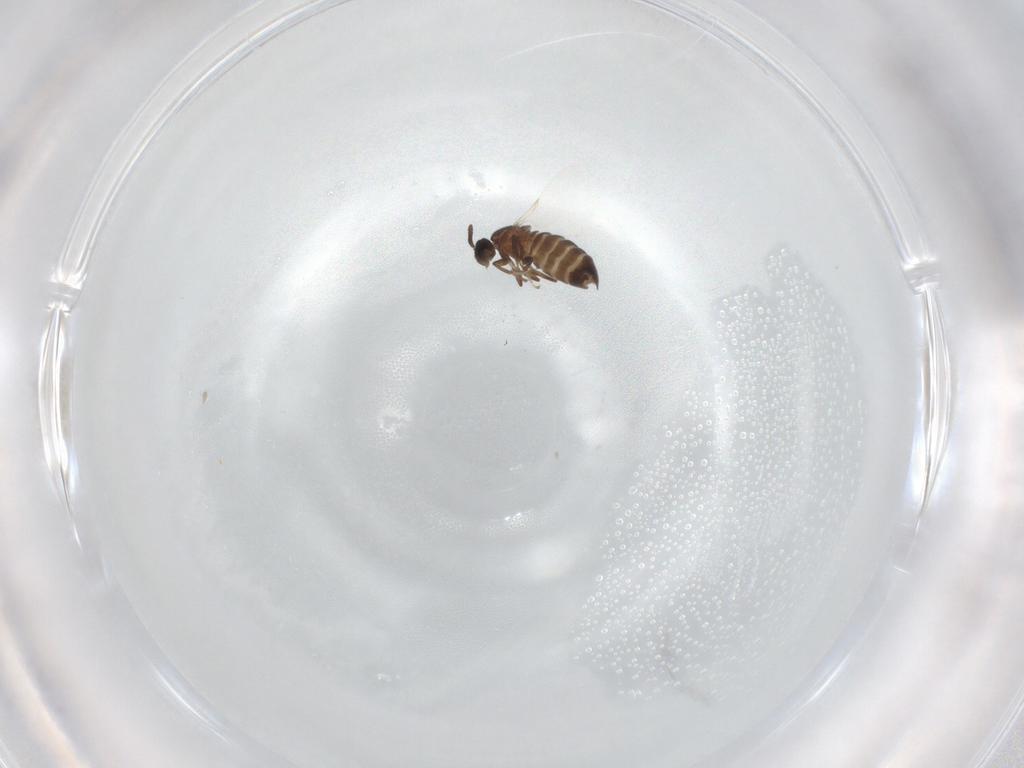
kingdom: Animalia
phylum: Arthropoda
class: Insecta
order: Diptera
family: Scatopsidae
